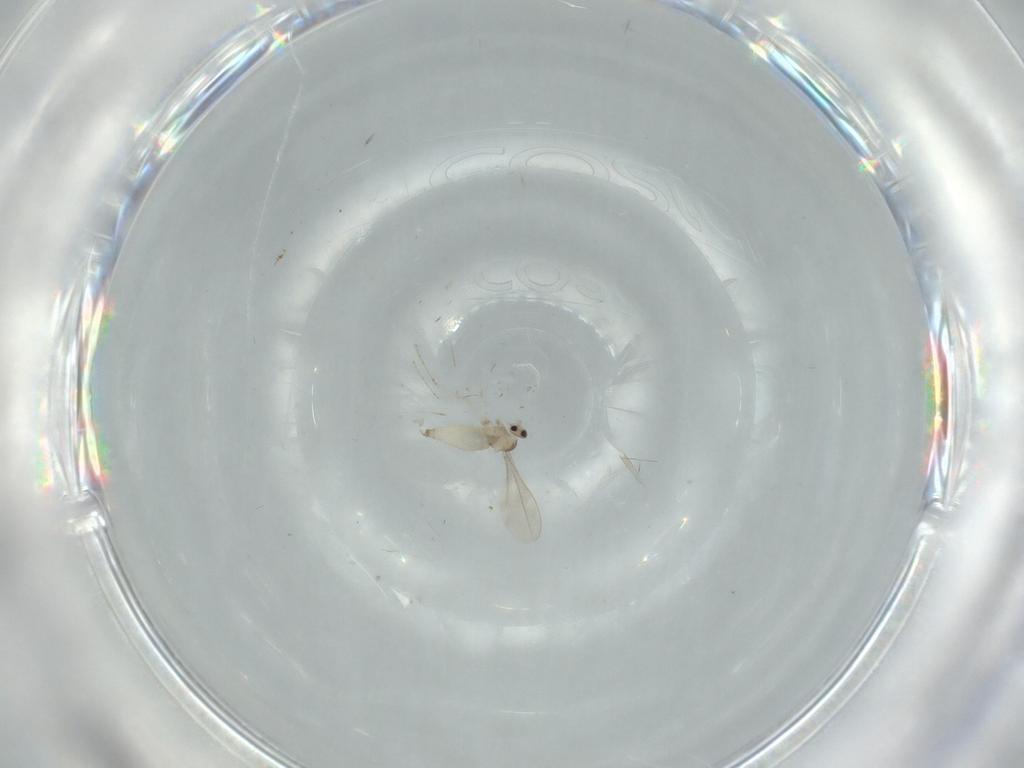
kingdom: Animalia
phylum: Arthropoda
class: Insecta
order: Diptera
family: Cecidomyiidae
